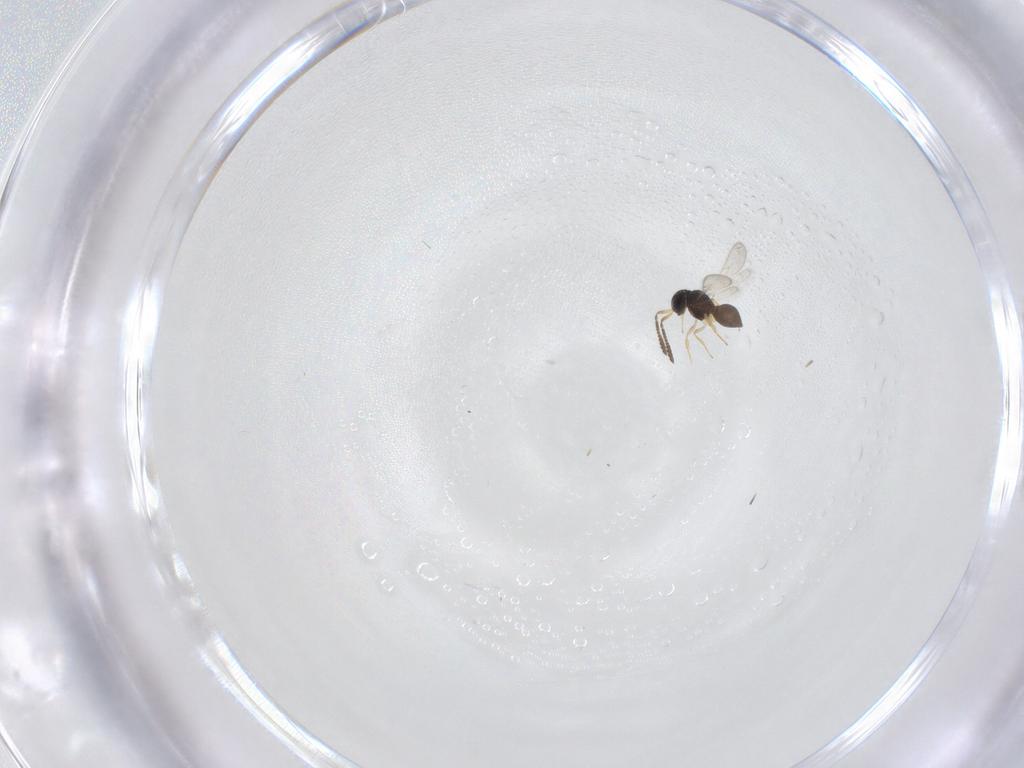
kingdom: Animalia
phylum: Arthropoda
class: Insecta
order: Hymenoptera
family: Scelionidae
